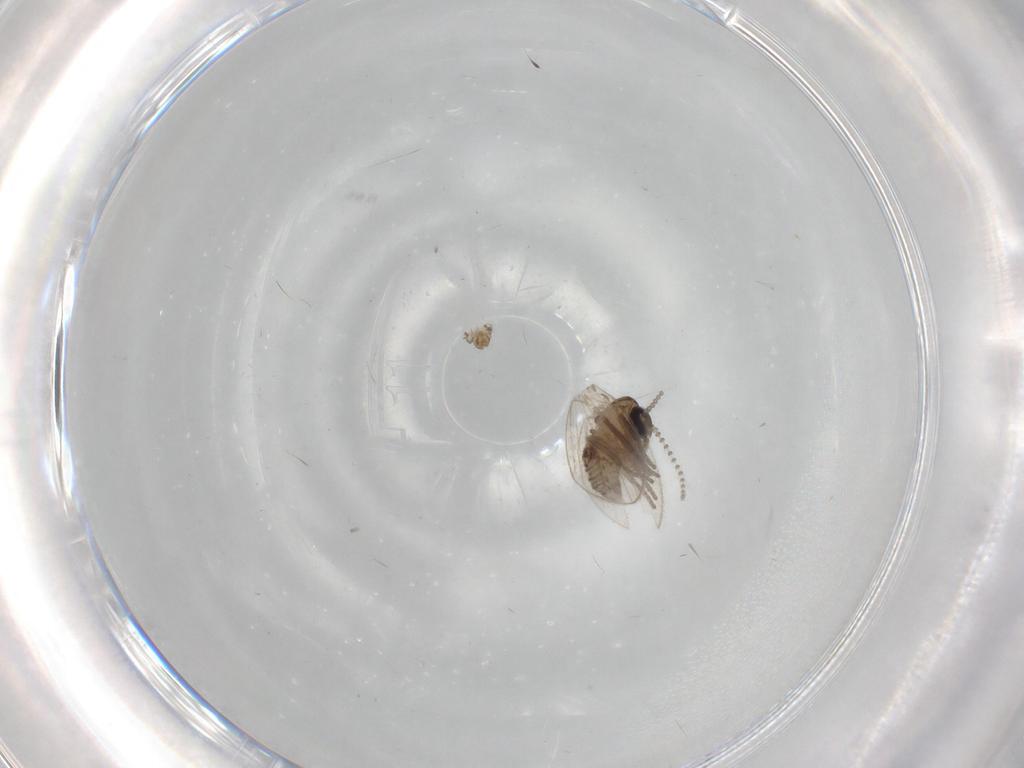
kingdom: Animalia
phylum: Arthropoda
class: Insecta
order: Diptera
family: Psychodidae
